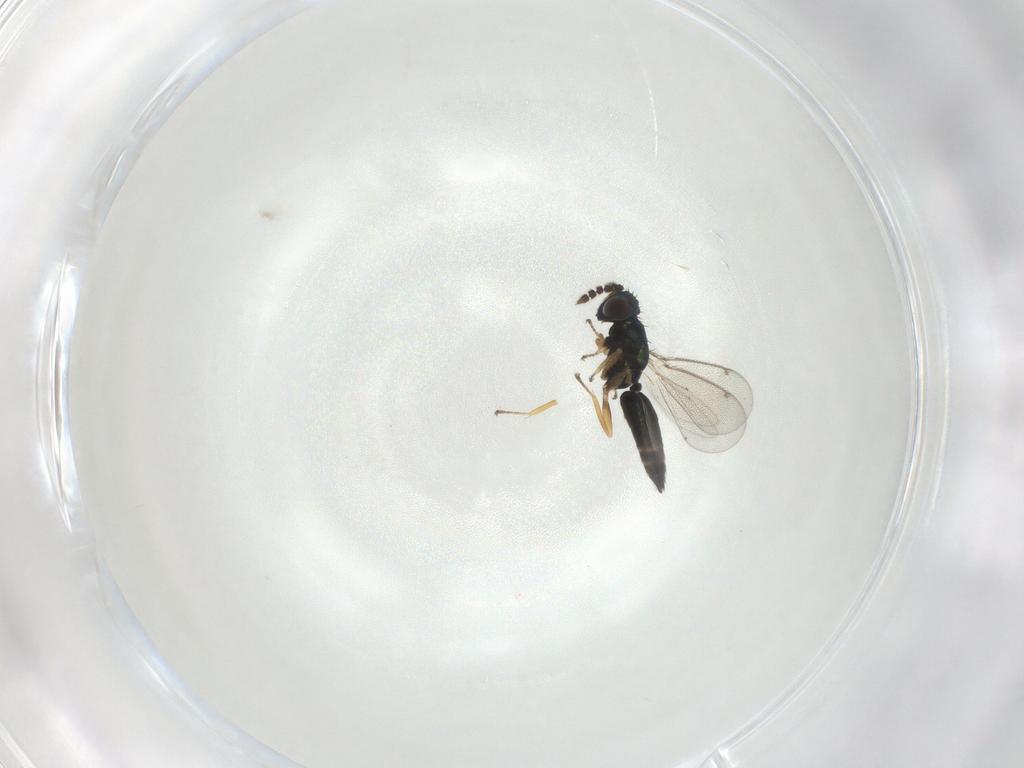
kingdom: Animalia
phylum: Arthropoda
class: Insecta
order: Hymenoptera
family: Eulophidae
